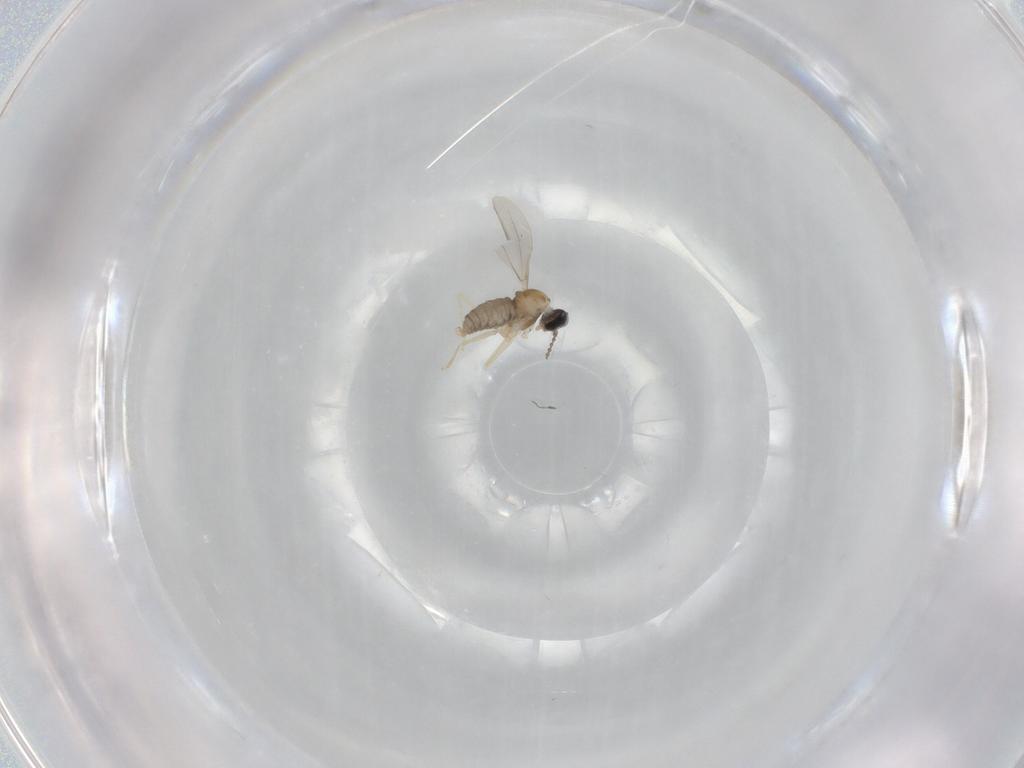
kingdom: Animalia
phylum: Arthropoda
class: Insecta
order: Diptera
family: Cecidomyiidae
